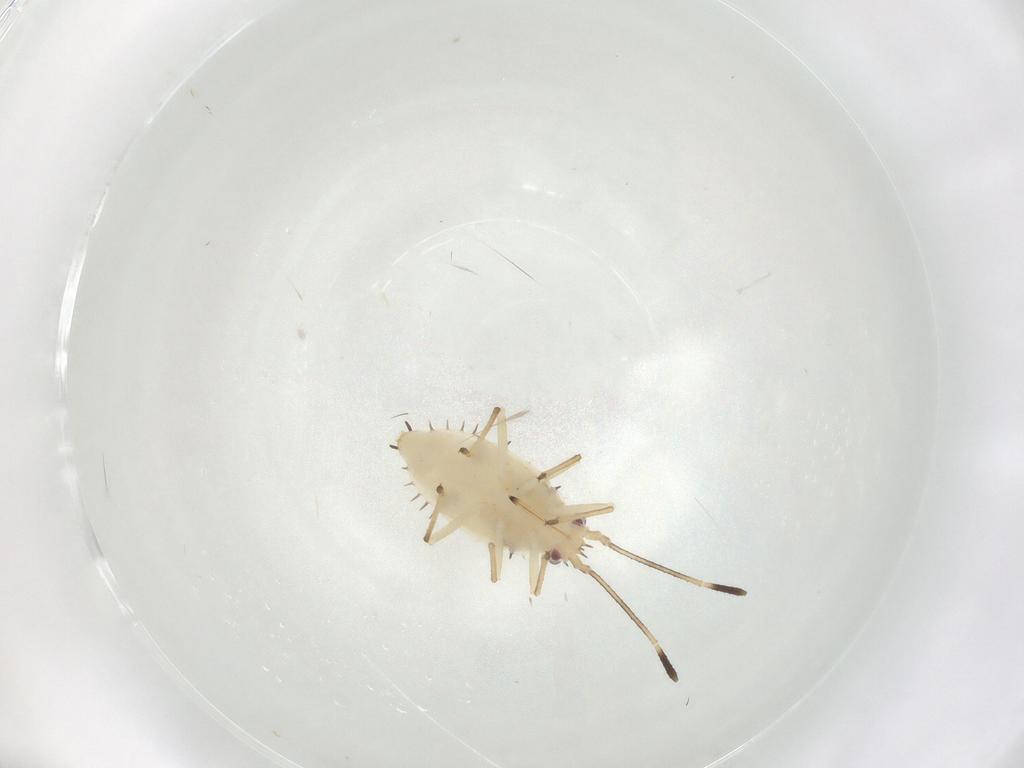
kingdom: Animalia
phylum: Arthropoda
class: Insecta
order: Hemiptera
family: Tingidae
